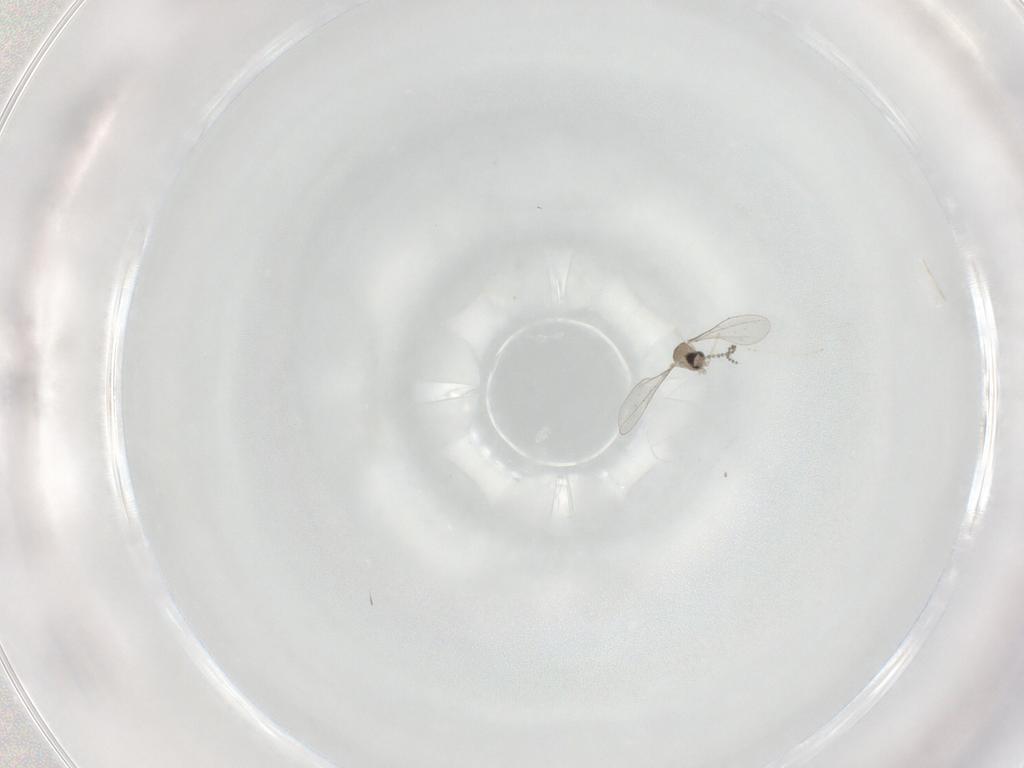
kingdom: Animalia
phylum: Arthropoda
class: Insecta
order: Diptera
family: Cecidomyiidae
